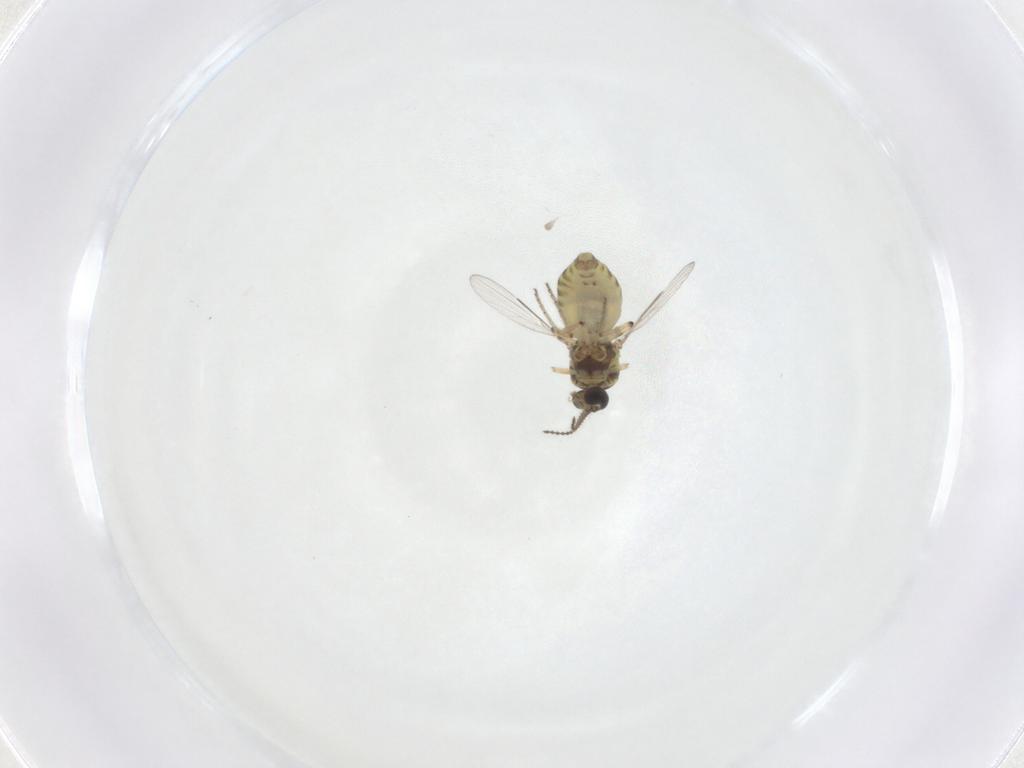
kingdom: Animalia
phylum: Arthropoda
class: Insecta
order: Diptera
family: Ceratopogonidae
